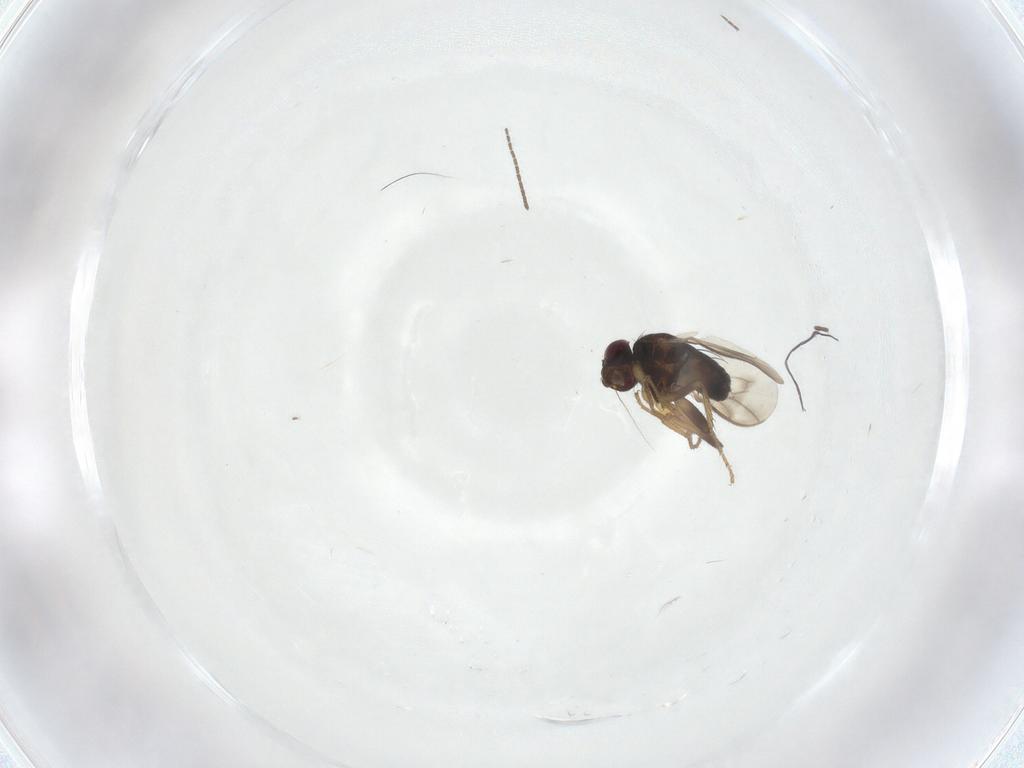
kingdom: Animalia
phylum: Arthropoda
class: Insecta
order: Diptera
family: Sphaeroceridae
